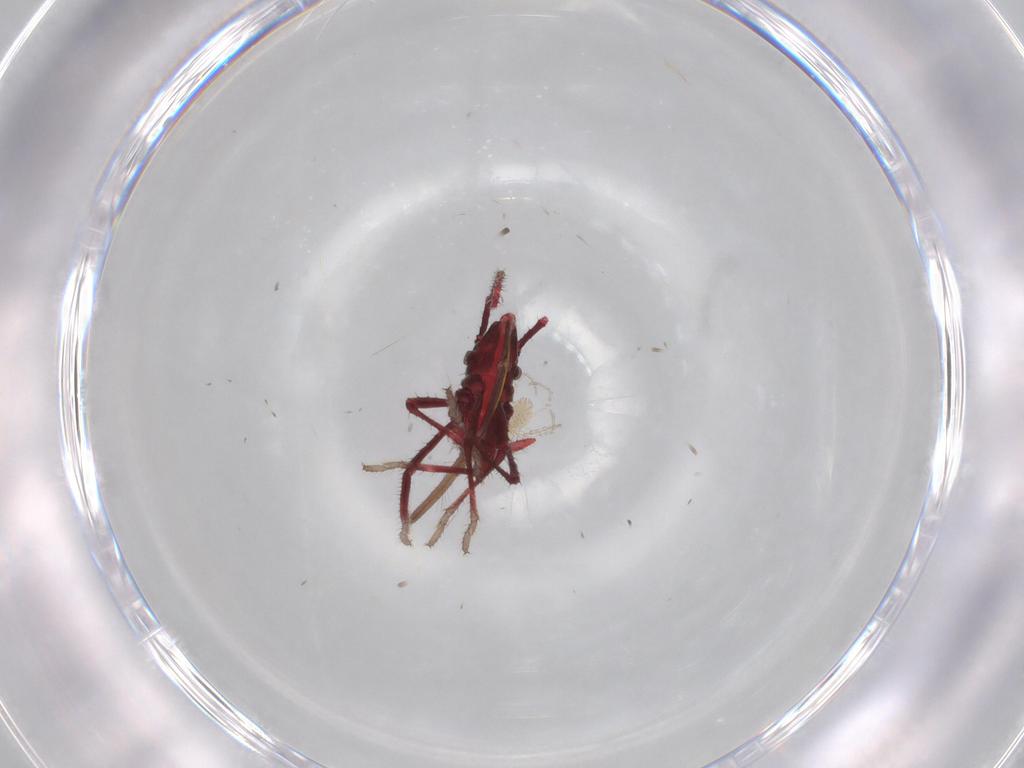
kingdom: Animalia
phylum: Arthropoda
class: Insecta
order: Hemiptera
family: Coreidae
